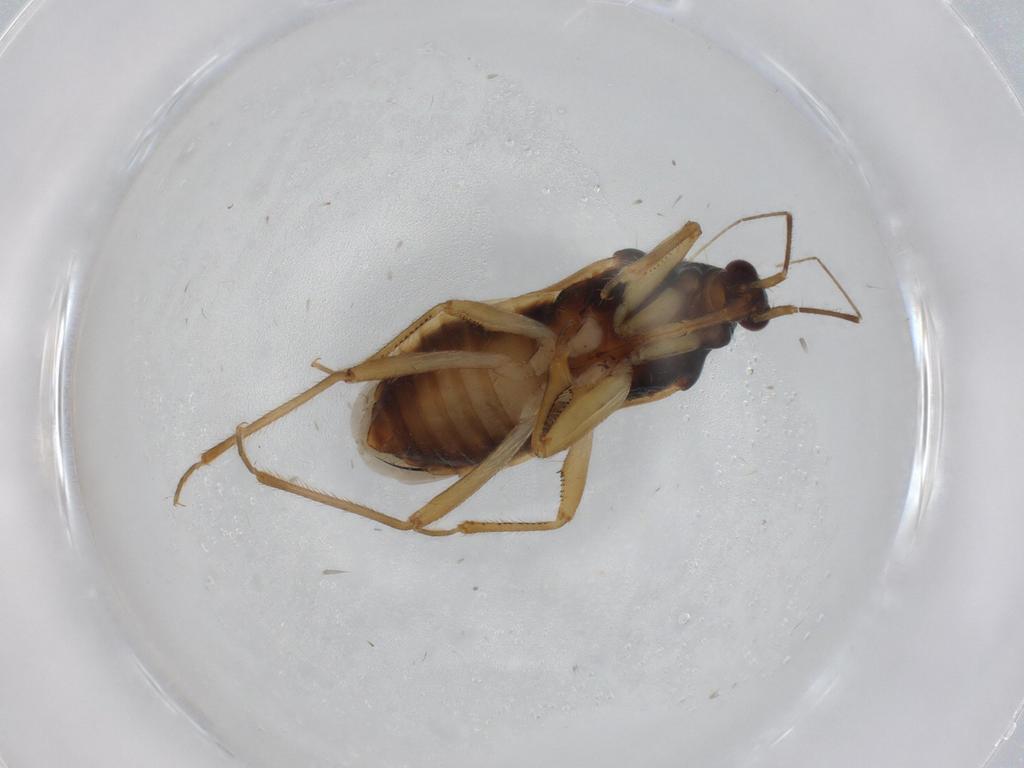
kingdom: Animalia
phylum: Arthropoda
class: Insecta
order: Hemiptera
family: Nabidae
